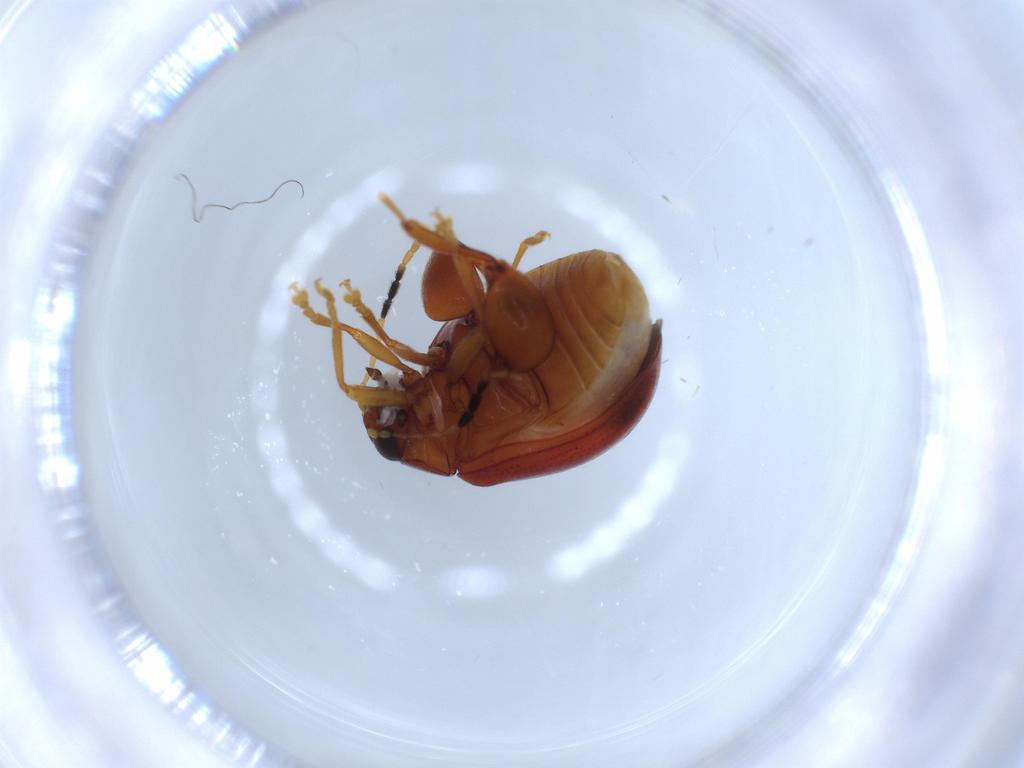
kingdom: Animalia
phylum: Arthropoda
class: Insecta
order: Coleoptera
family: Chrysomelidae
